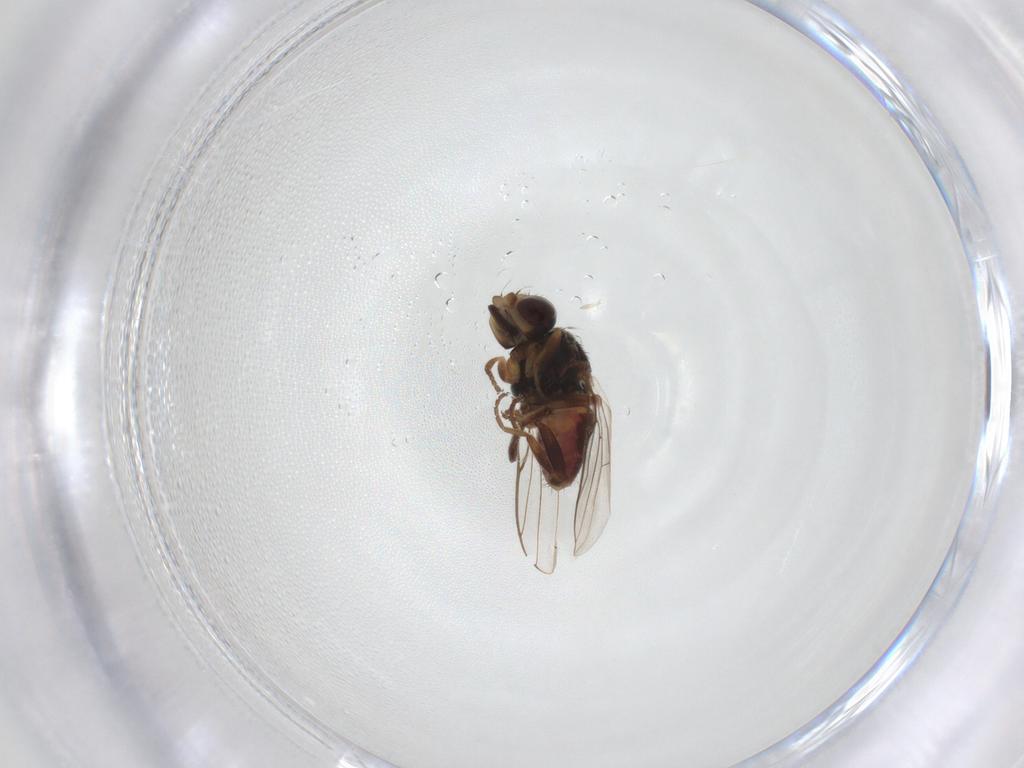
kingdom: Animalia
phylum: Arthropoda
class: Insecta
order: Diptera
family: Chloropidae
